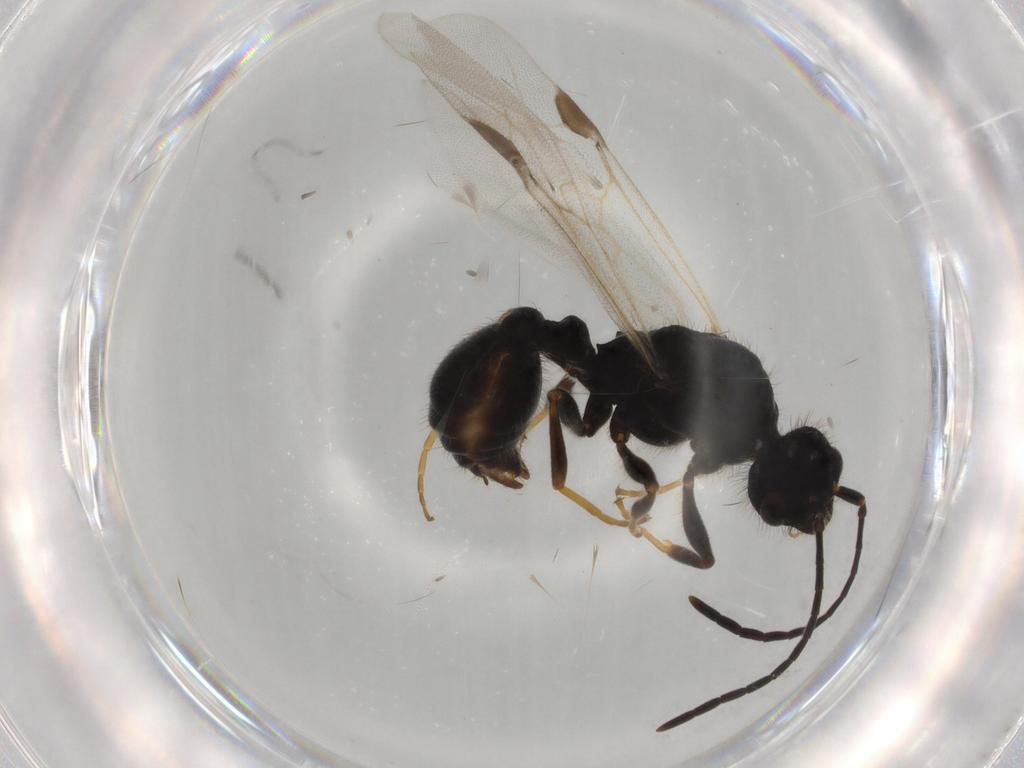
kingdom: Animalia
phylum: Arthropoda
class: Insecta
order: Hymenoptera
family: Formicidae
